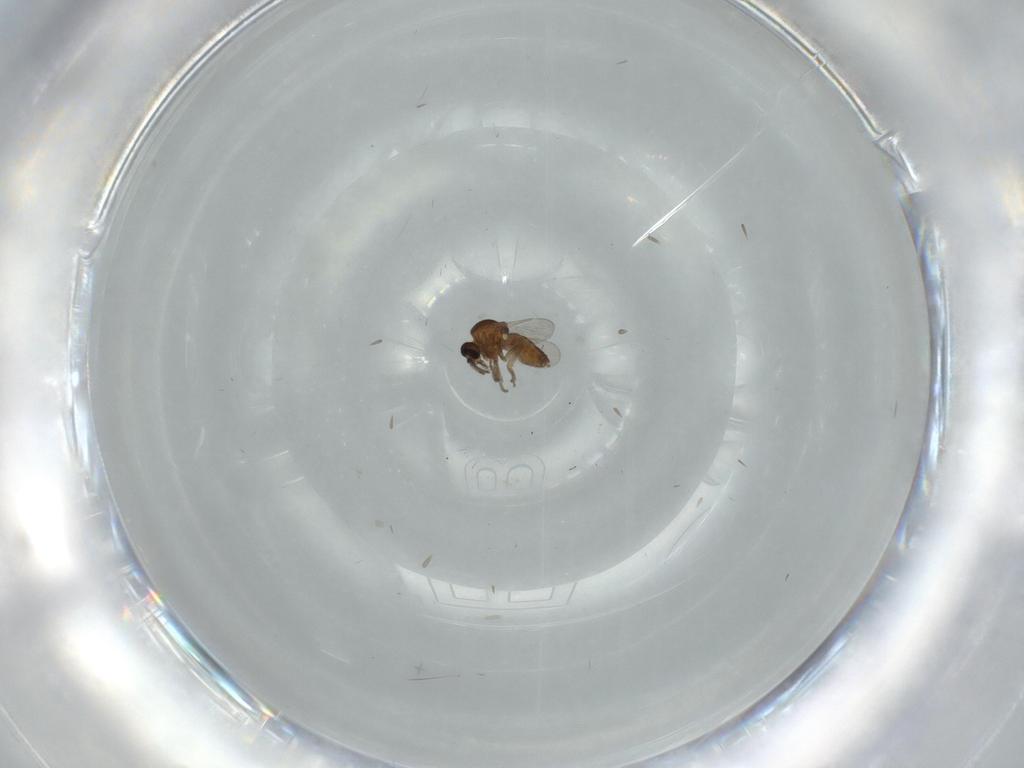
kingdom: Animalia
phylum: Arthropoda
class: Insecta
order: Diptera
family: Ceratopogonidae
